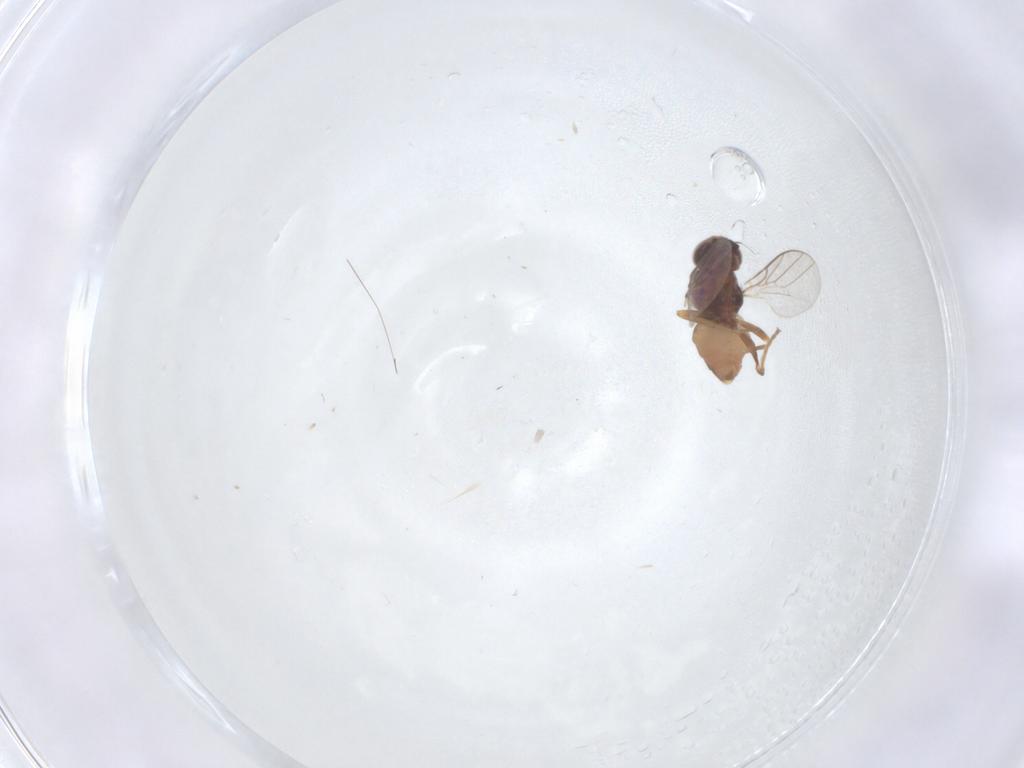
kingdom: Animalia
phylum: Arthropoda
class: Insecta
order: Diptera
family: Chloropidae
